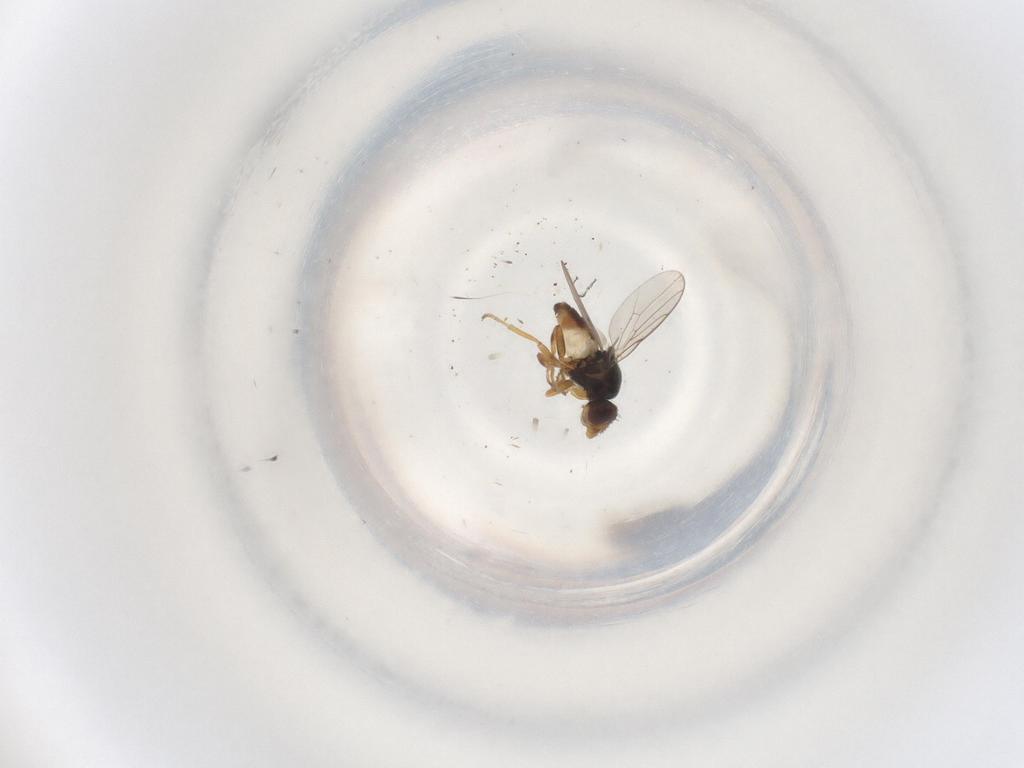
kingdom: Animalia
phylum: Arthropoda
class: Insecta
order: Diptera
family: Chloropidae
